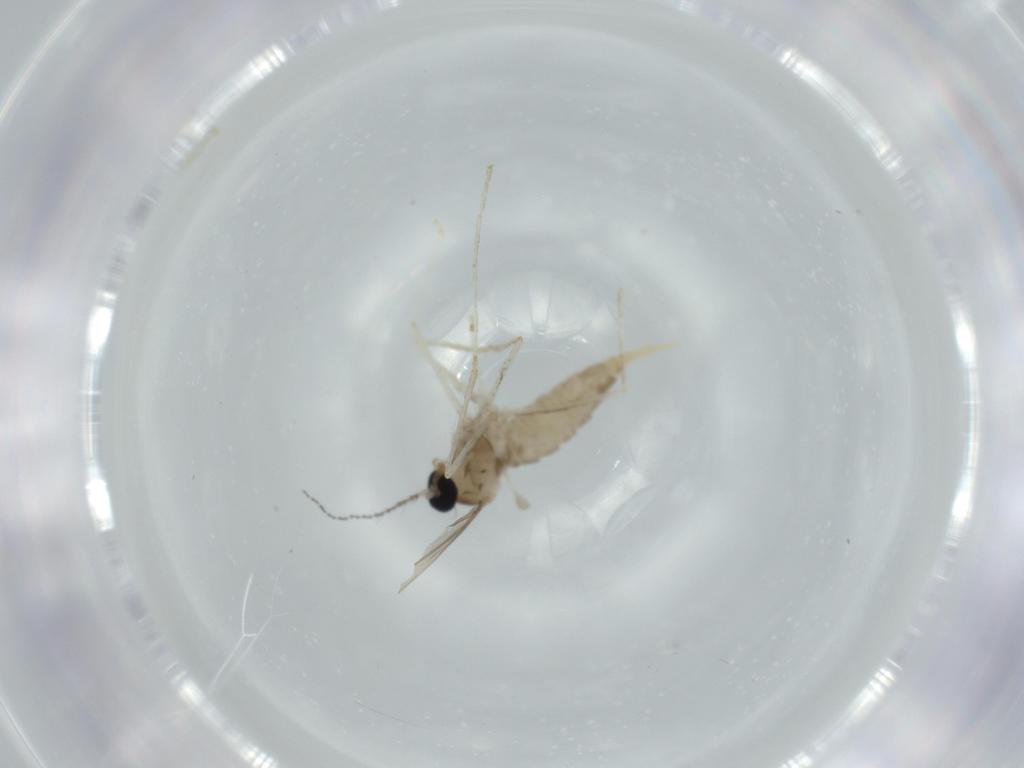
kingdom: Animalia
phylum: Arthropoda
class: Insecta
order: Diptera
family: Cecidomyiidae
